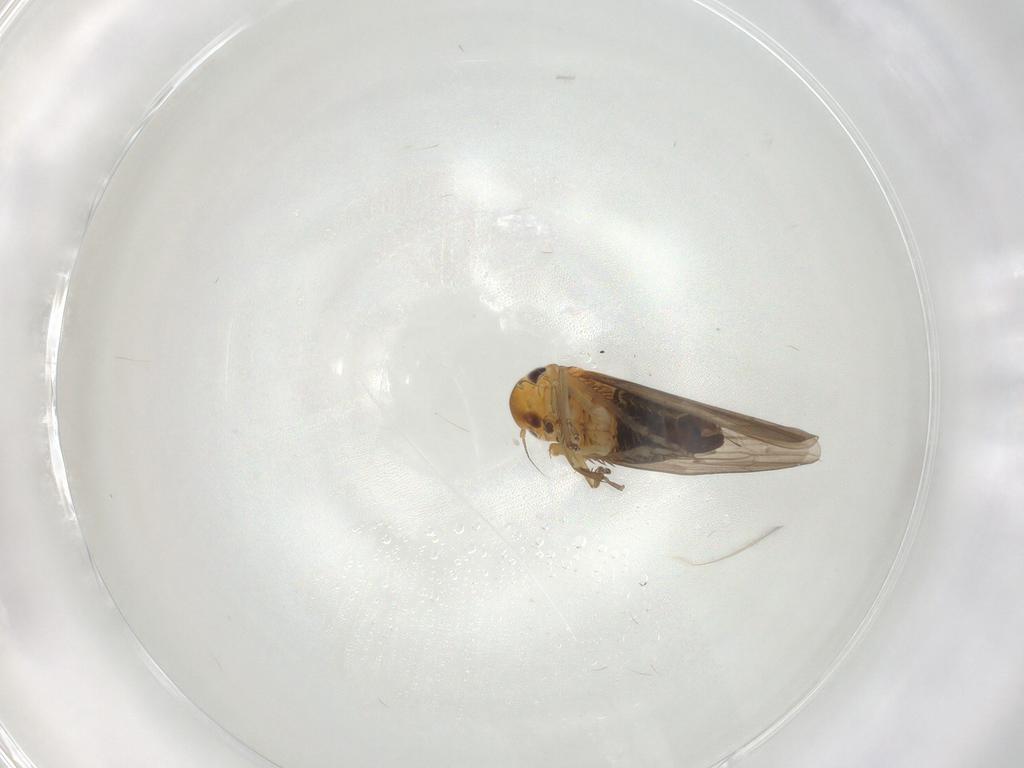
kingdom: Animalia
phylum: Arthropoda
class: Insecta
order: Hemiptera
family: Cicadellidae
